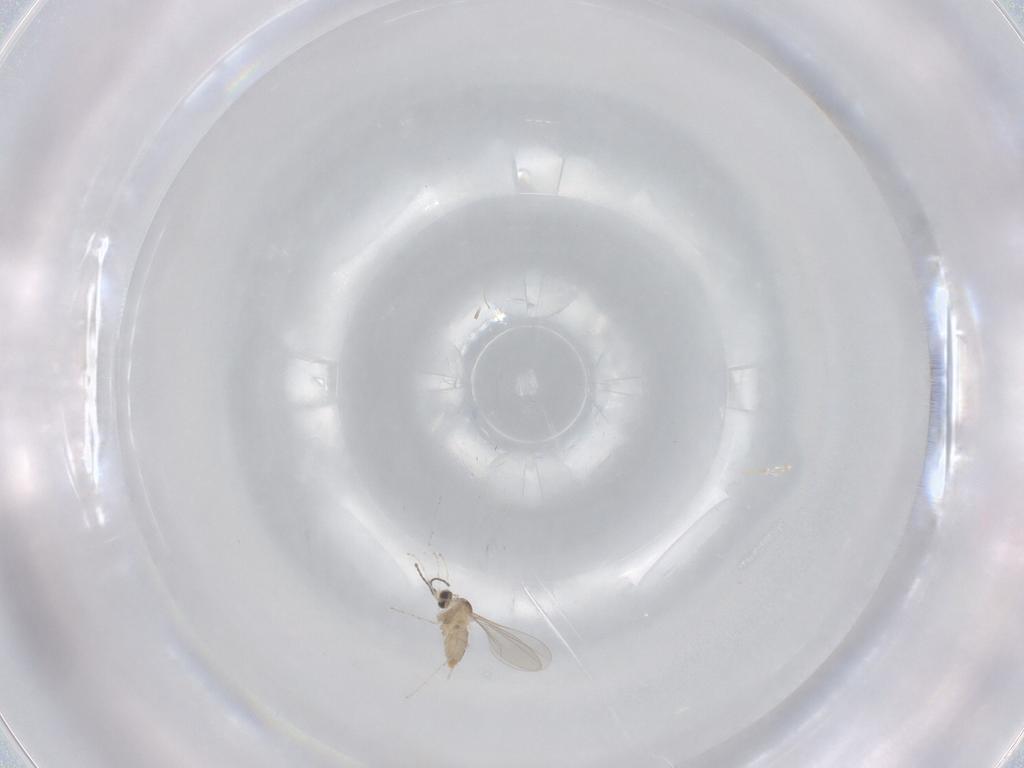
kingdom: Animalia
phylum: Arthropoda
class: Insecta
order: Diptera
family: Cecidomyiidae
